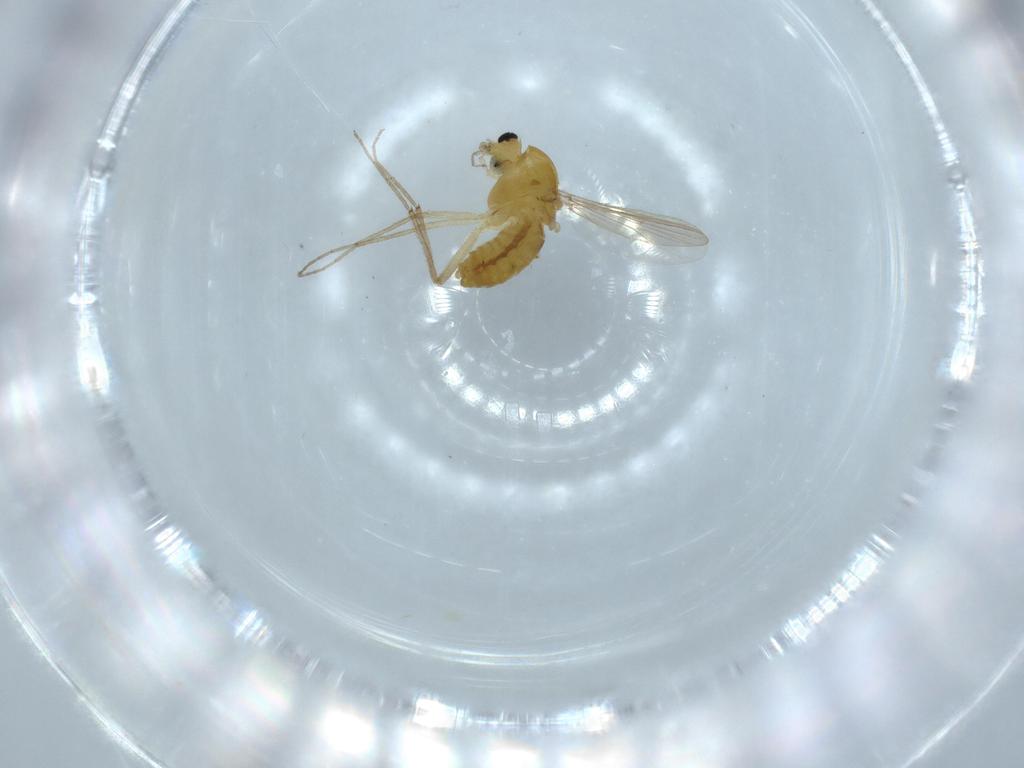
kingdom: Animalia
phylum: Arthropoda
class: Insecta
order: Diptera
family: Chironomidae
